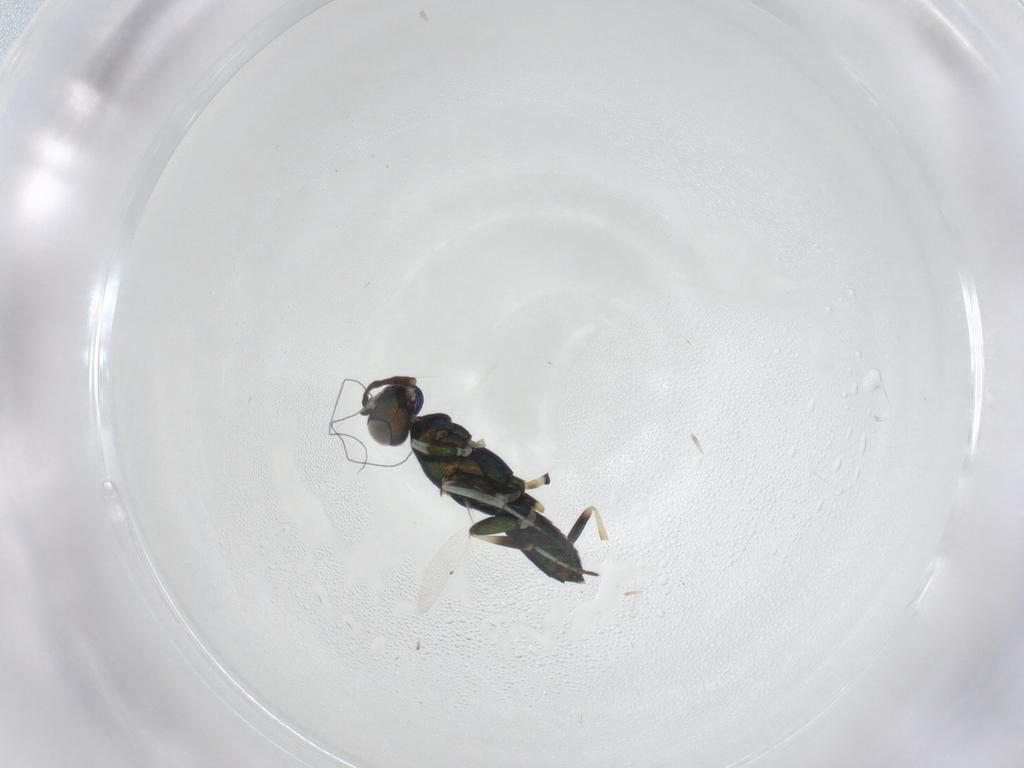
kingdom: Animalia
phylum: Arthropoda
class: Insecta
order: Hymenoptera
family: Eupelmidae
